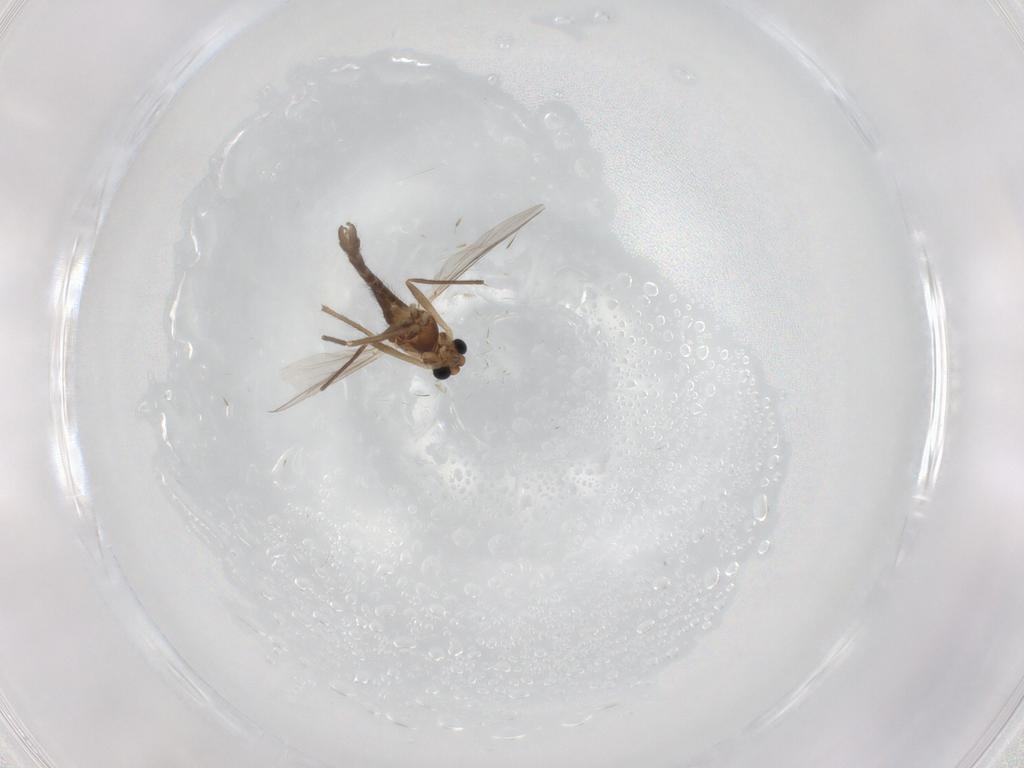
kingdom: Animalia
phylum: Arthropoda
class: Insecta
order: Diptera
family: Chironomidae
